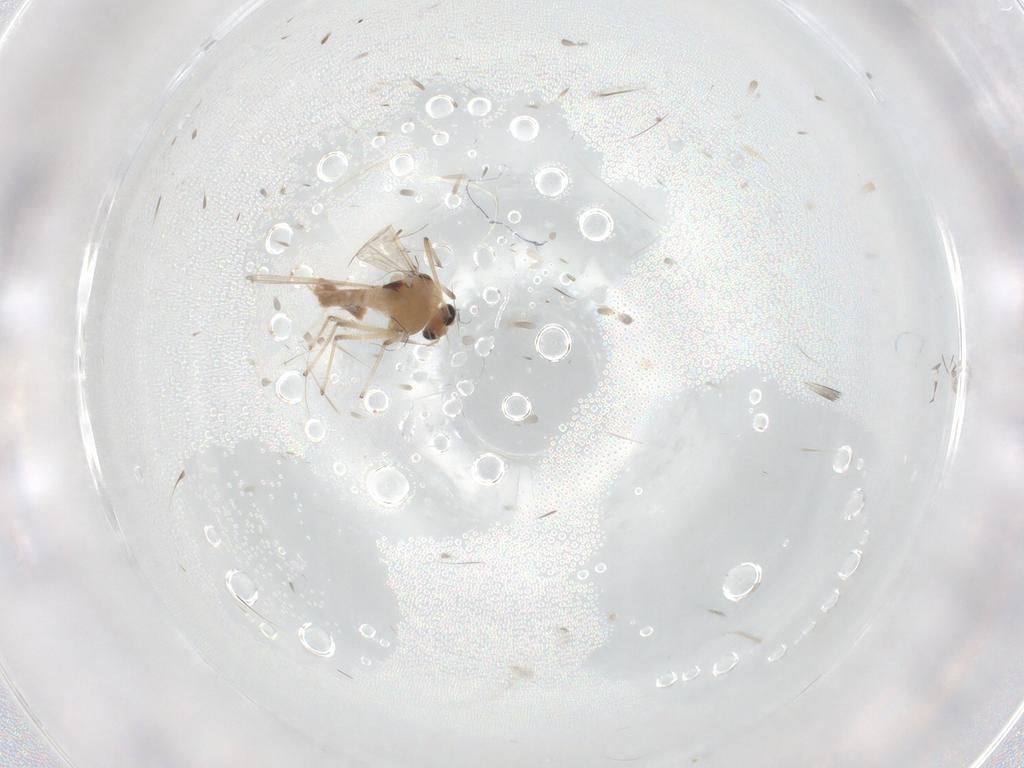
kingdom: Animalia
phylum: Arthropoda
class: Insecta
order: Diptera
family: Chironomidae
